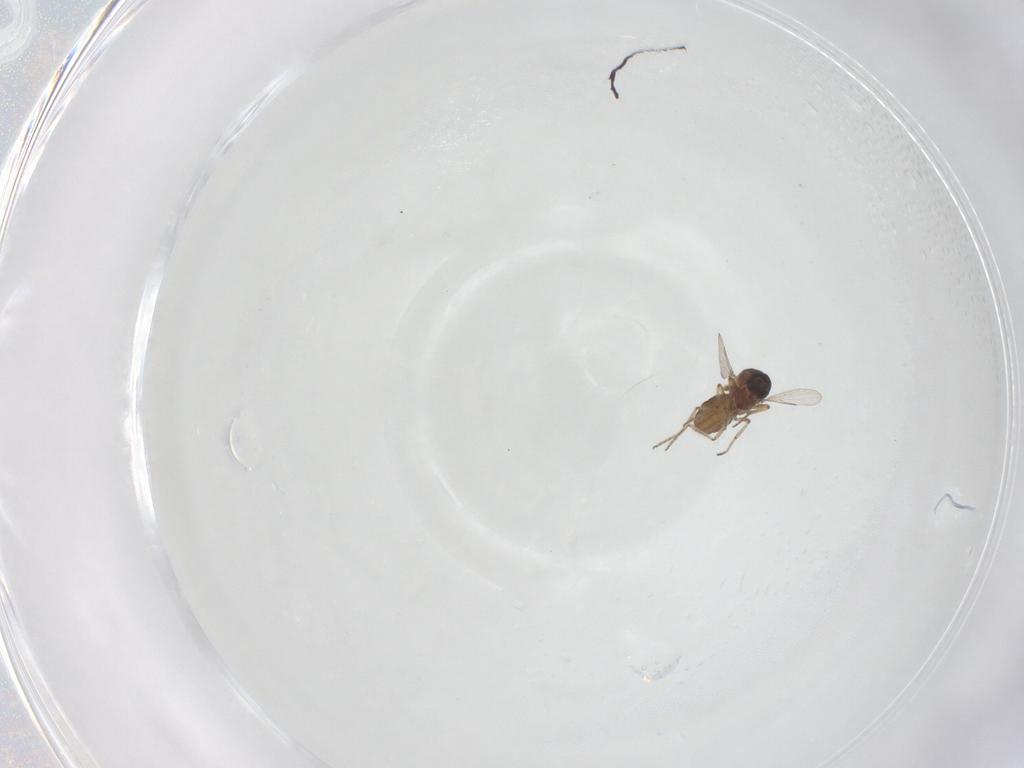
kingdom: Animalia
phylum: Arthropoda
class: Insecta
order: Diptera
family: Ceratopogonidae
